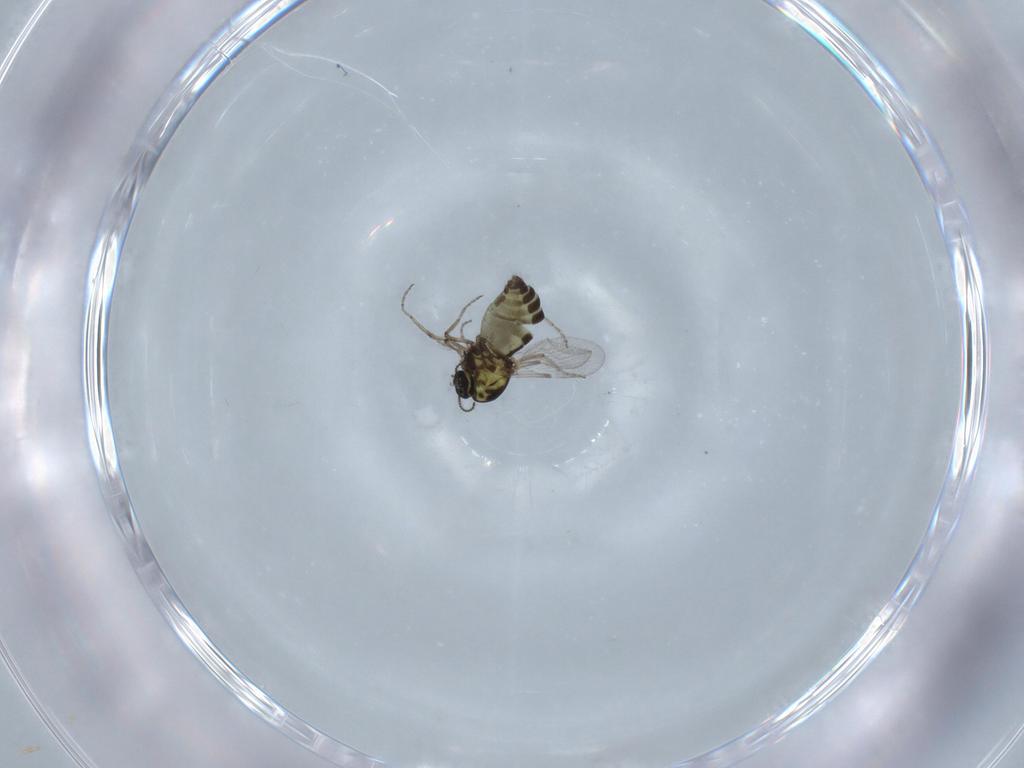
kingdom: Animalia
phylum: Arthropoda
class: Insecta
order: Diptera
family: Ceratopogonidae
